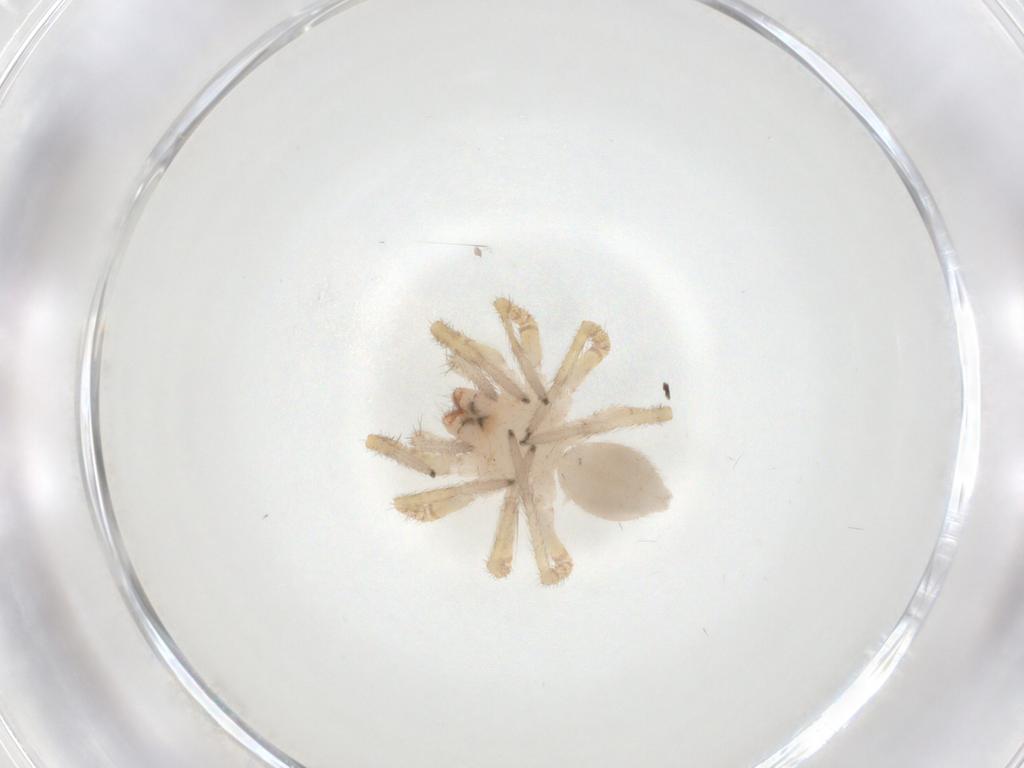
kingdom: Animalia
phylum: Arthropoda
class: Arachnida
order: Araneae
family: Corinnidae
